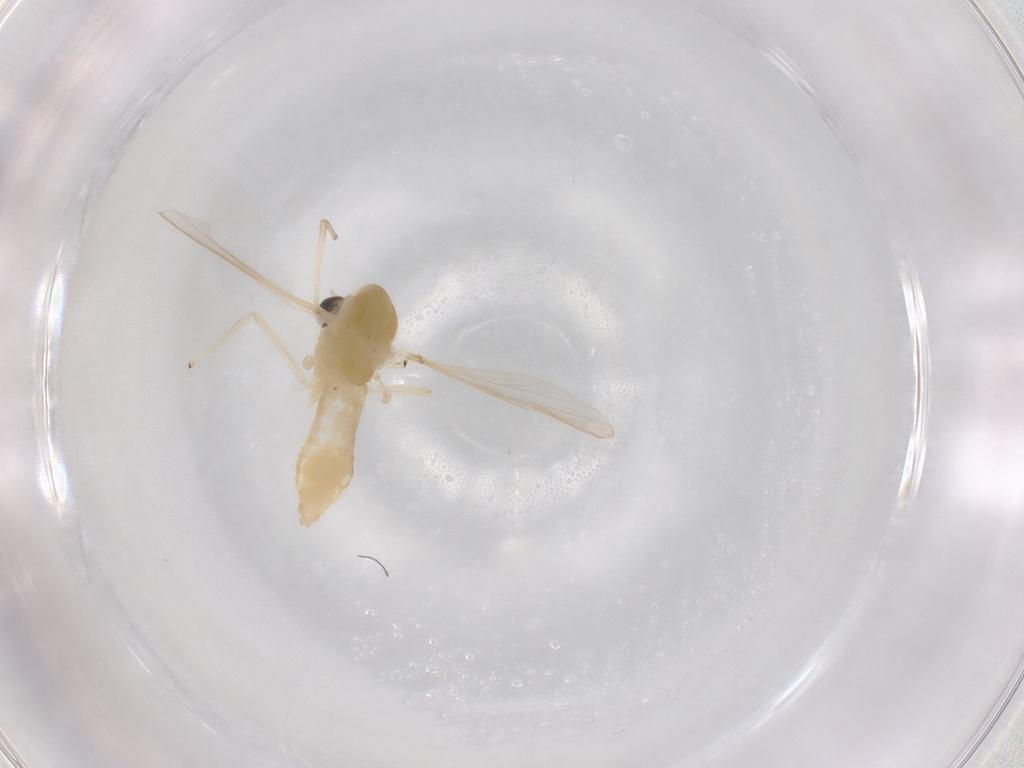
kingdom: Animalia
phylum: Arthropoda
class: Insecta
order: Diptera
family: Chironomidae
